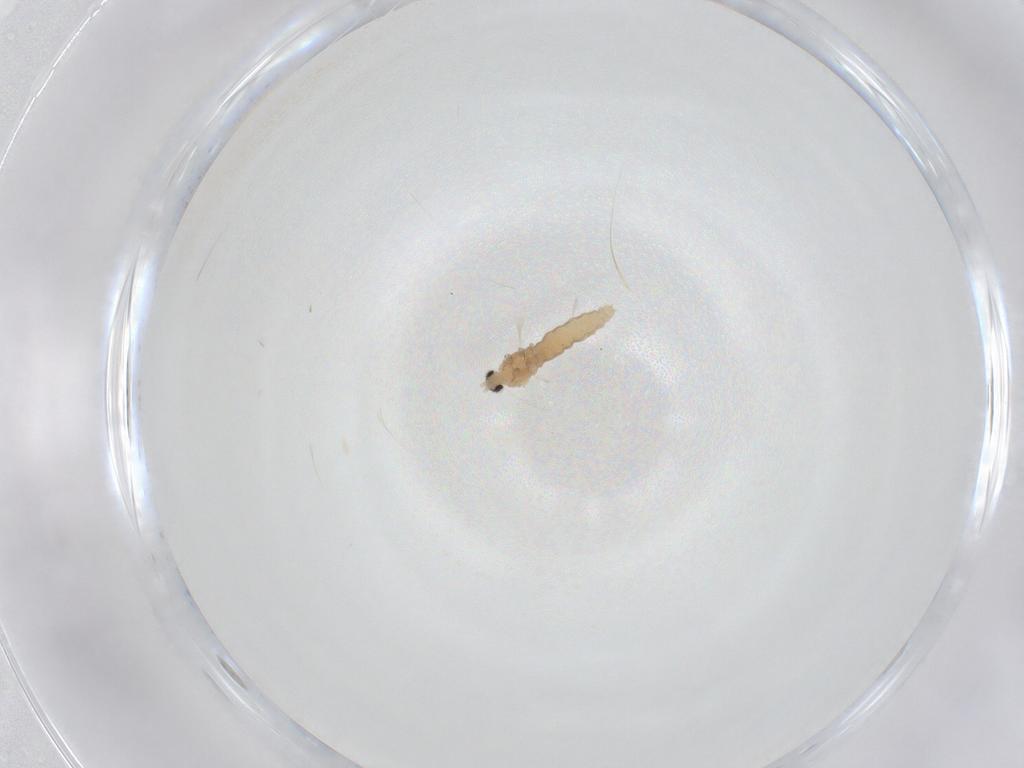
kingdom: Animalia
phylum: Arthropoda
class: Insecta
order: Diptera
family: Cecidomyiidae
